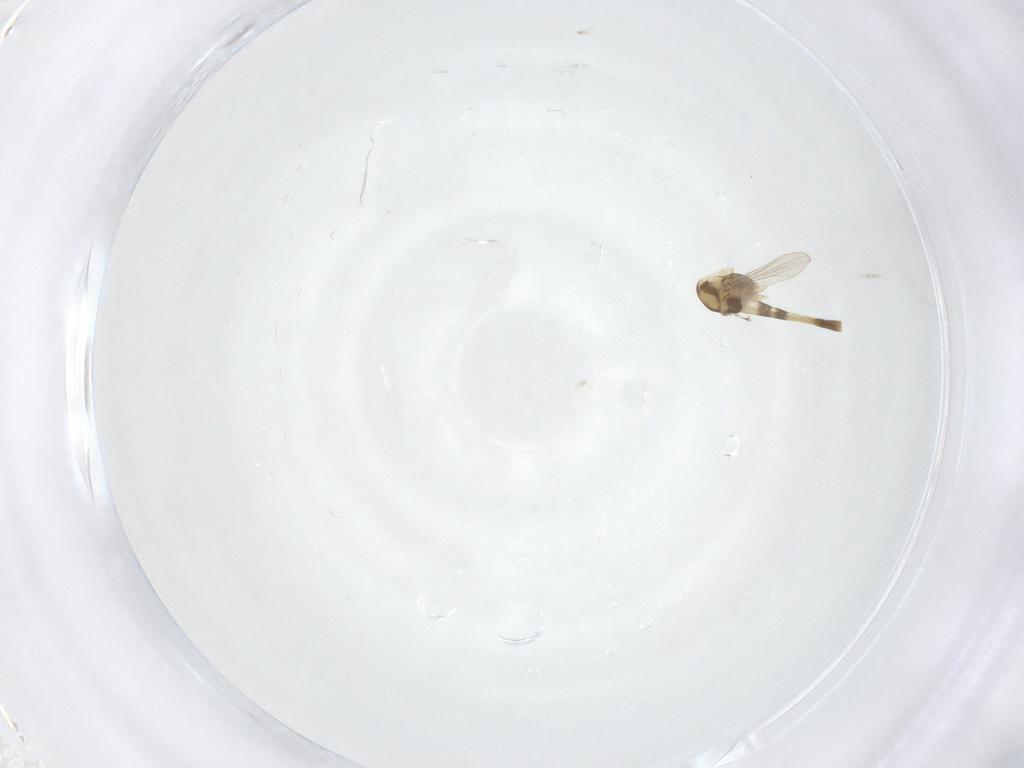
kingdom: Animalia
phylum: Arthropoda
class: Insecta
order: Diptera
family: Chironomidae
